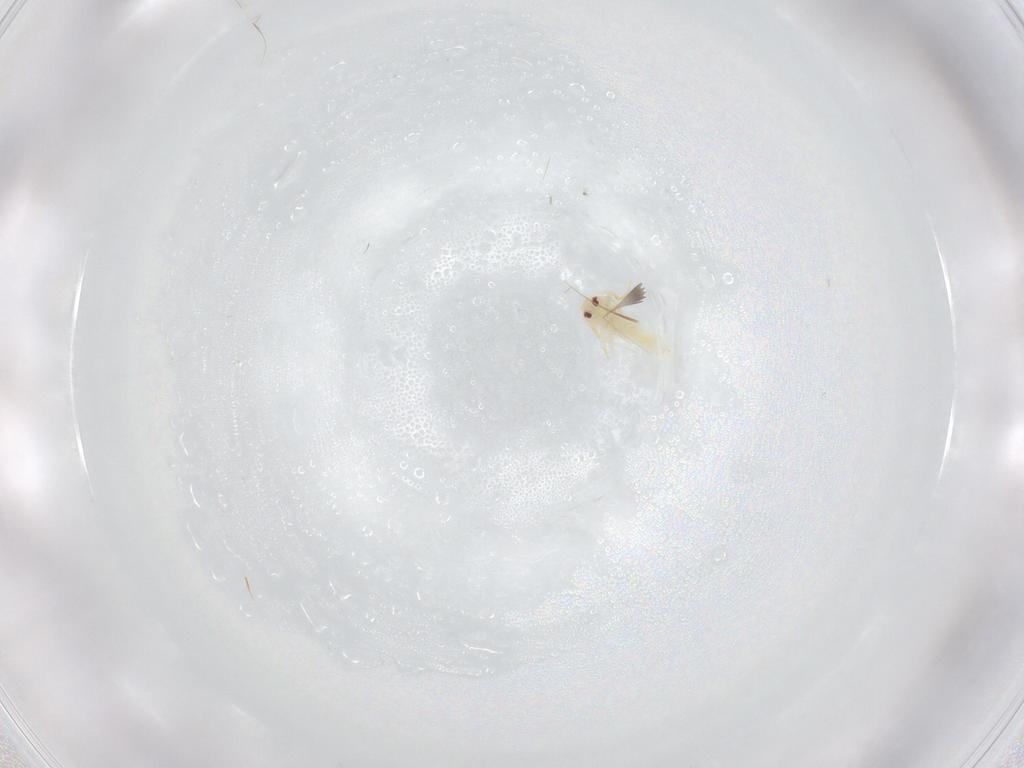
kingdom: Animalia
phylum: Arthropoda
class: Insecta
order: Hemiptera
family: Aleyrodidae
